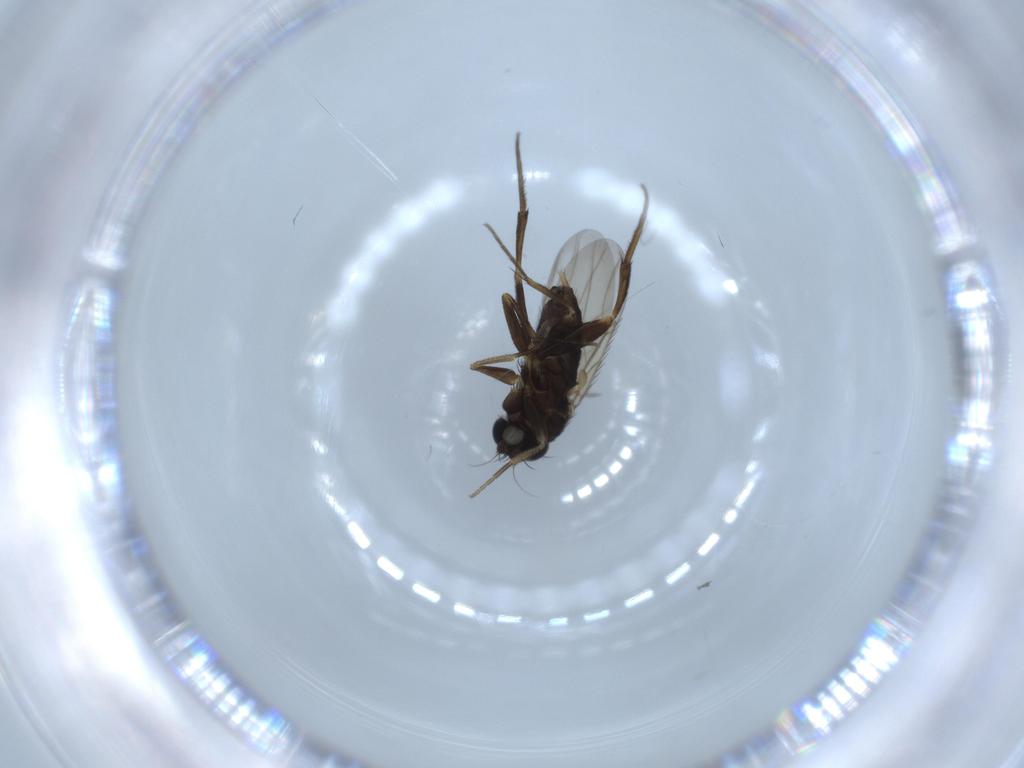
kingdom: Animalia
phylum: Arthropoda
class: Insecta
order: Diptera
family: Phoridae
